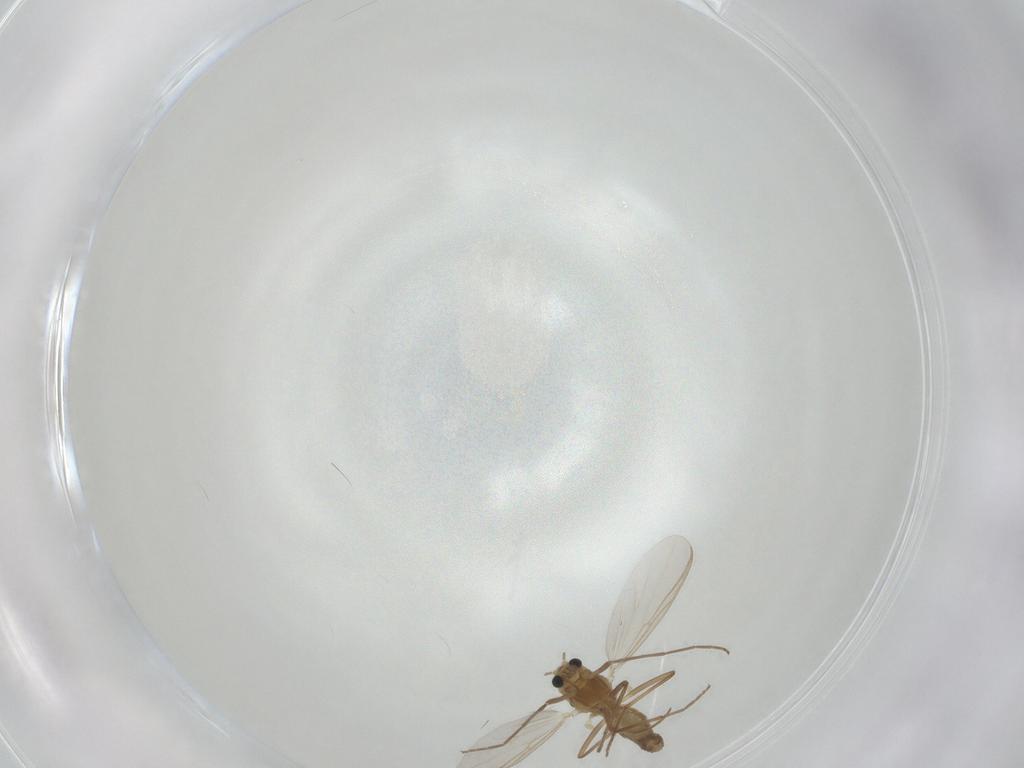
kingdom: Animalia
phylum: Arthropoda
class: Insecta
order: Diptera
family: Chironomidae
